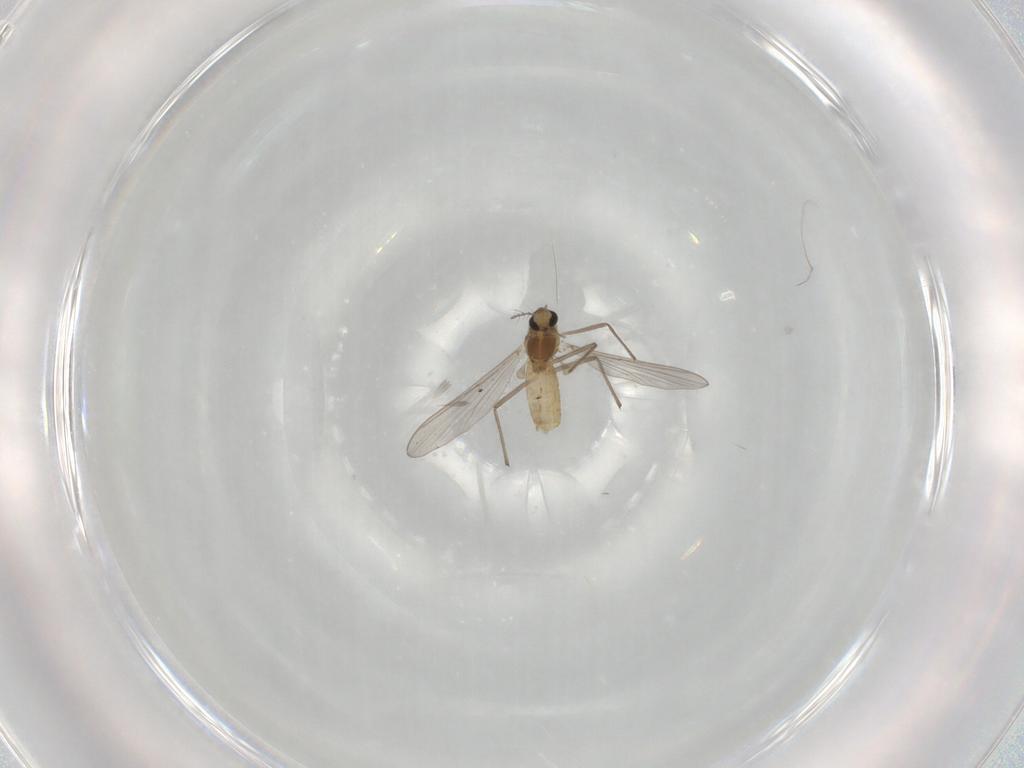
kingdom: Animalia
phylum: Arthropoda
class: Insecta
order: Diptera
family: Chironomidae
